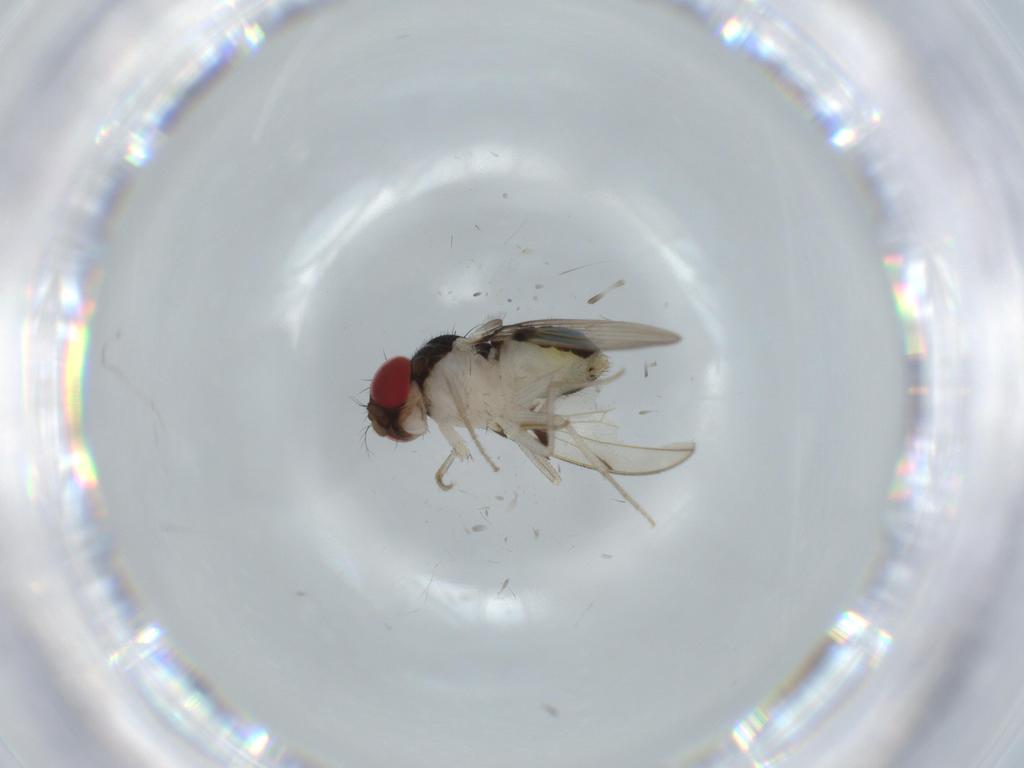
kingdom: Animalia
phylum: Arthropoda
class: Insecta
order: Diptera
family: Drosophilidae
